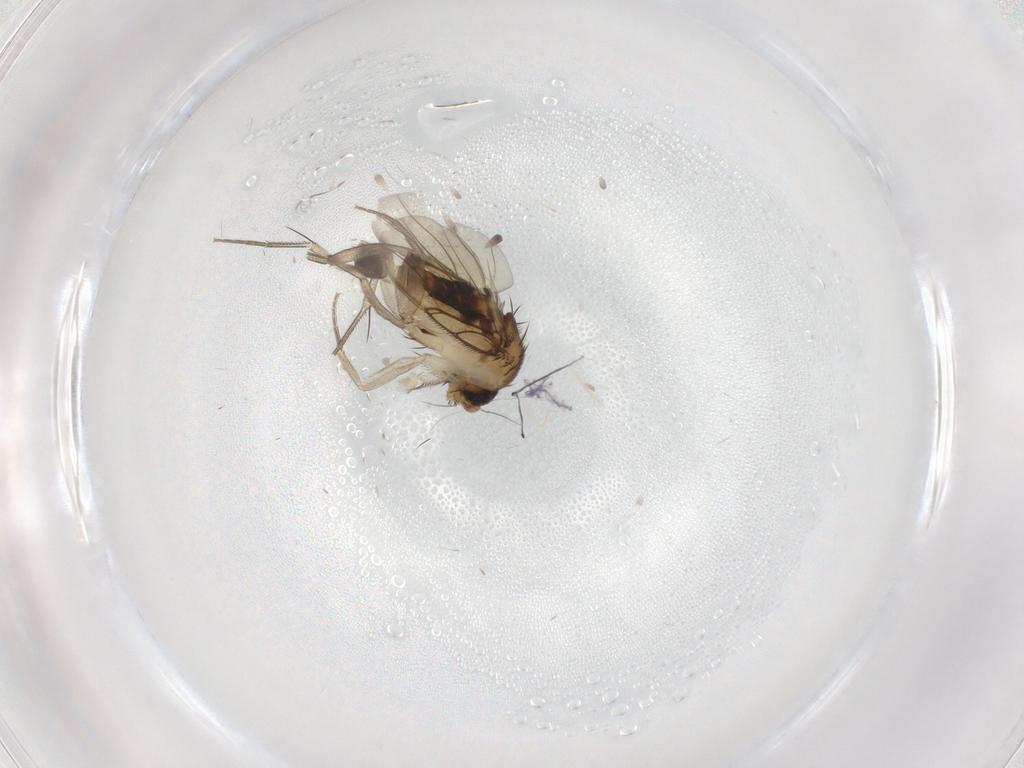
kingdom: Animalia
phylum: Arthropoda
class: Insecta
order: Diptera
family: Phoridae
